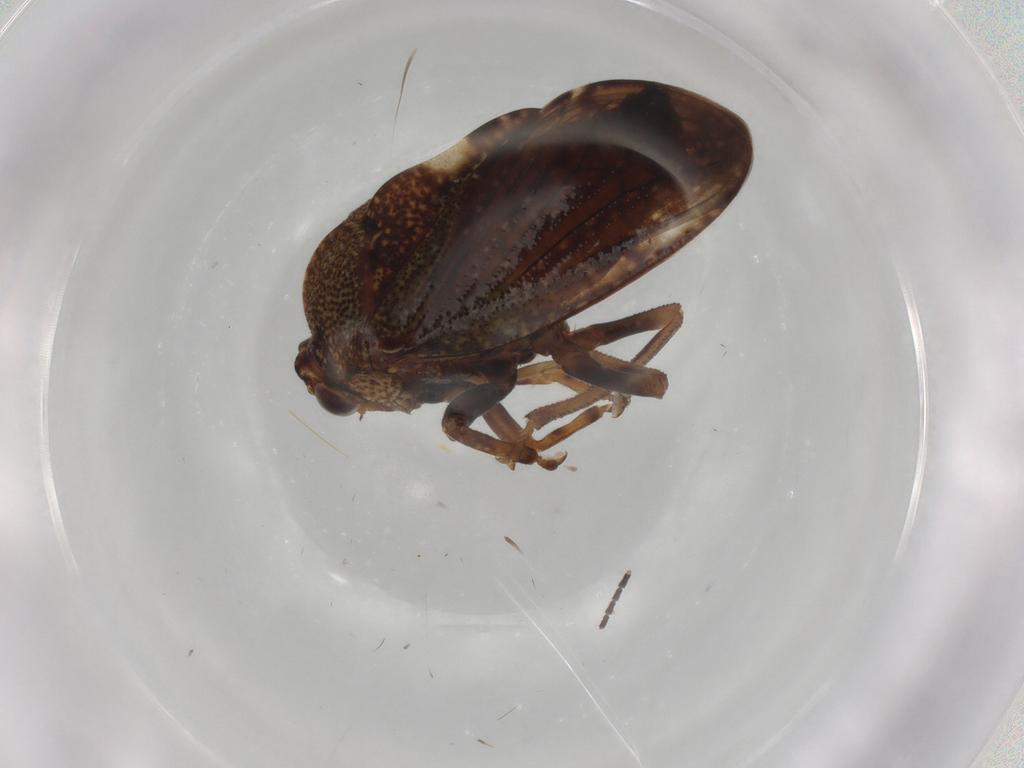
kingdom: Animalia
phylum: Arthropoda
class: Insecta
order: Hemiptera
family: Aetalionidae
